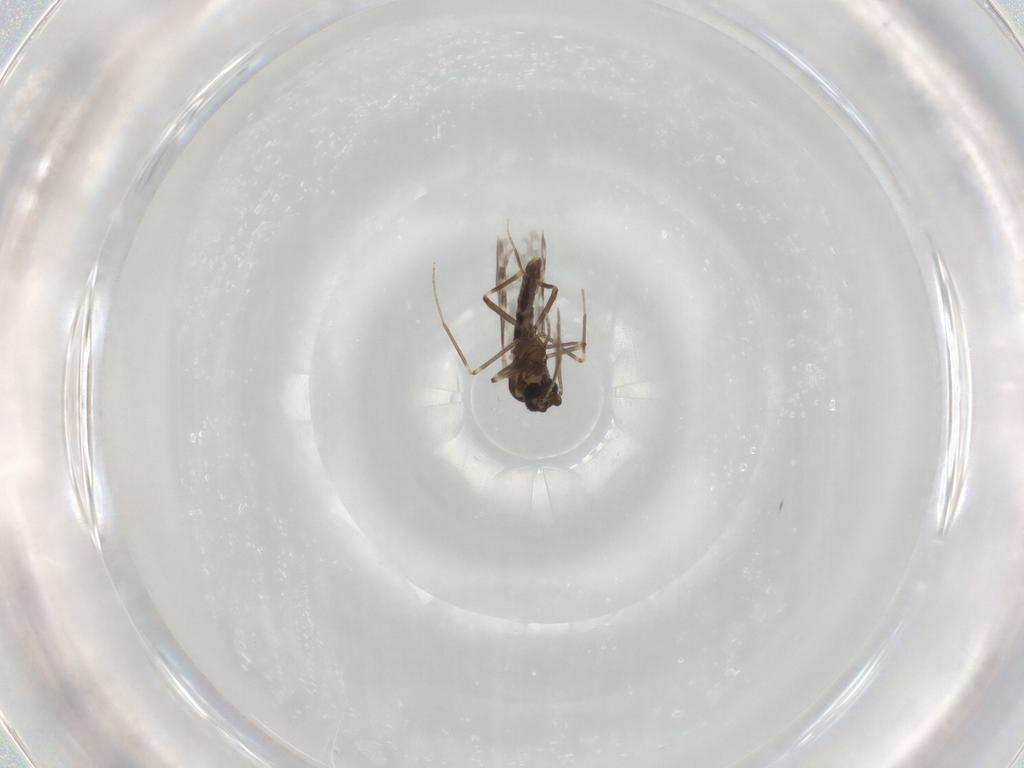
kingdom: Animalia
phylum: Arthropoda
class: Insecta
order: Diptera
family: Ceratopogonidae
